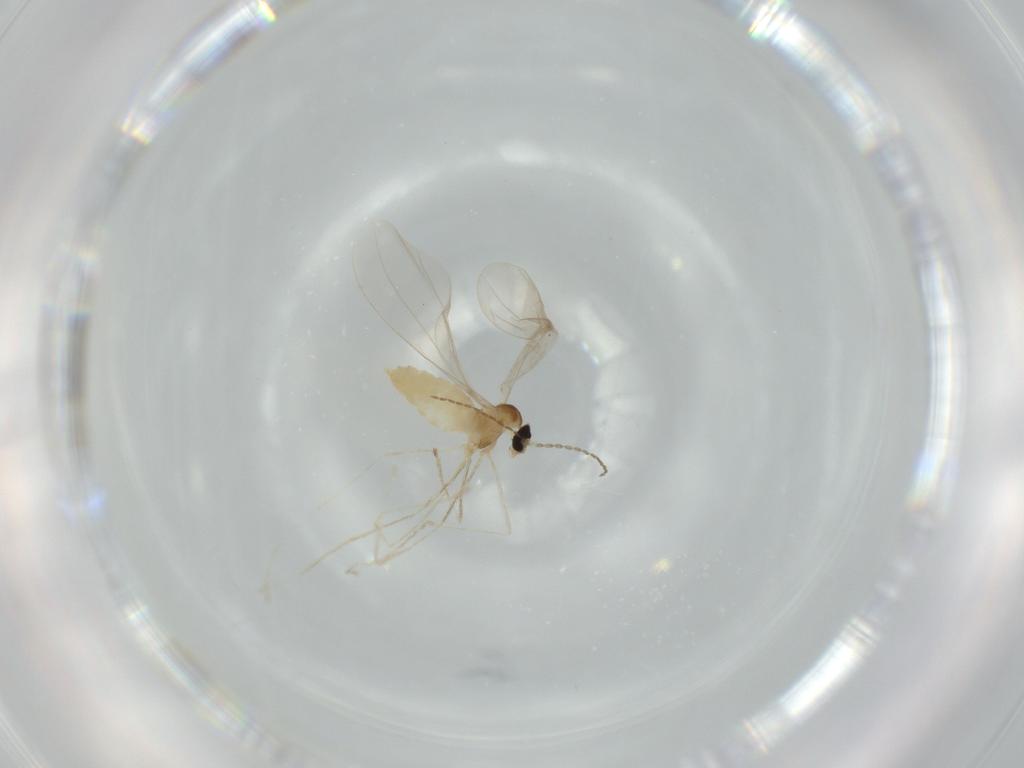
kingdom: Animalia
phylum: Arthropoda
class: Insecta
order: Diptera
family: Cecidomyiidae
